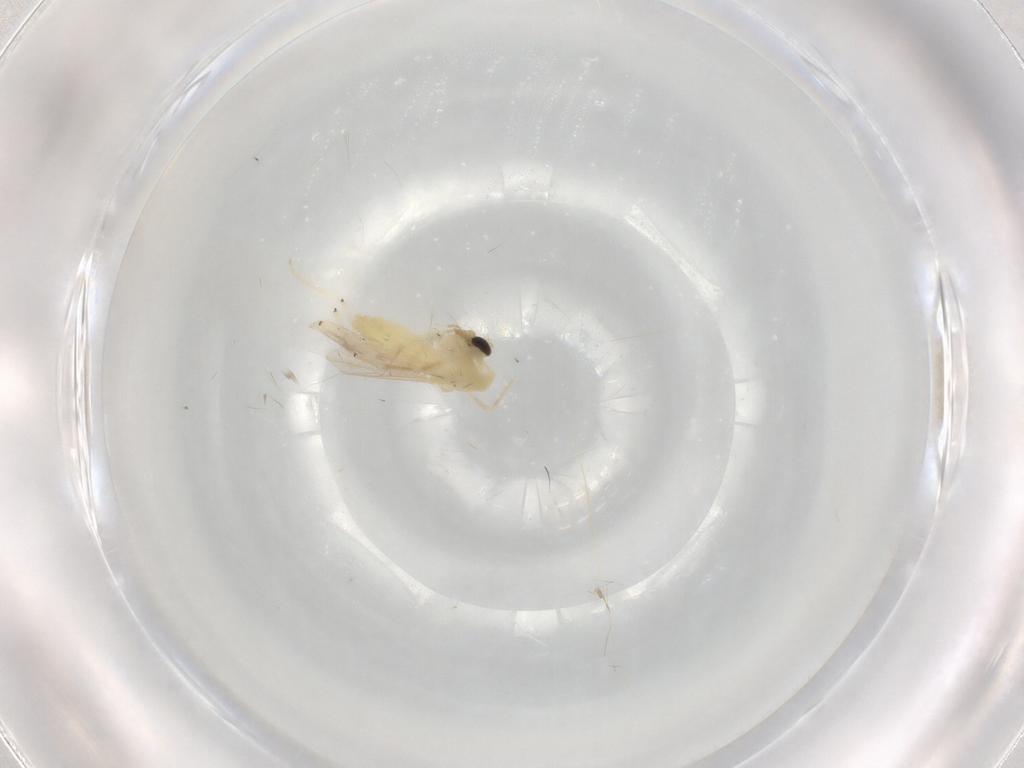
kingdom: Animalia
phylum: Arthropoda
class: Insecta
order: Diptera
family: Chironomidae
